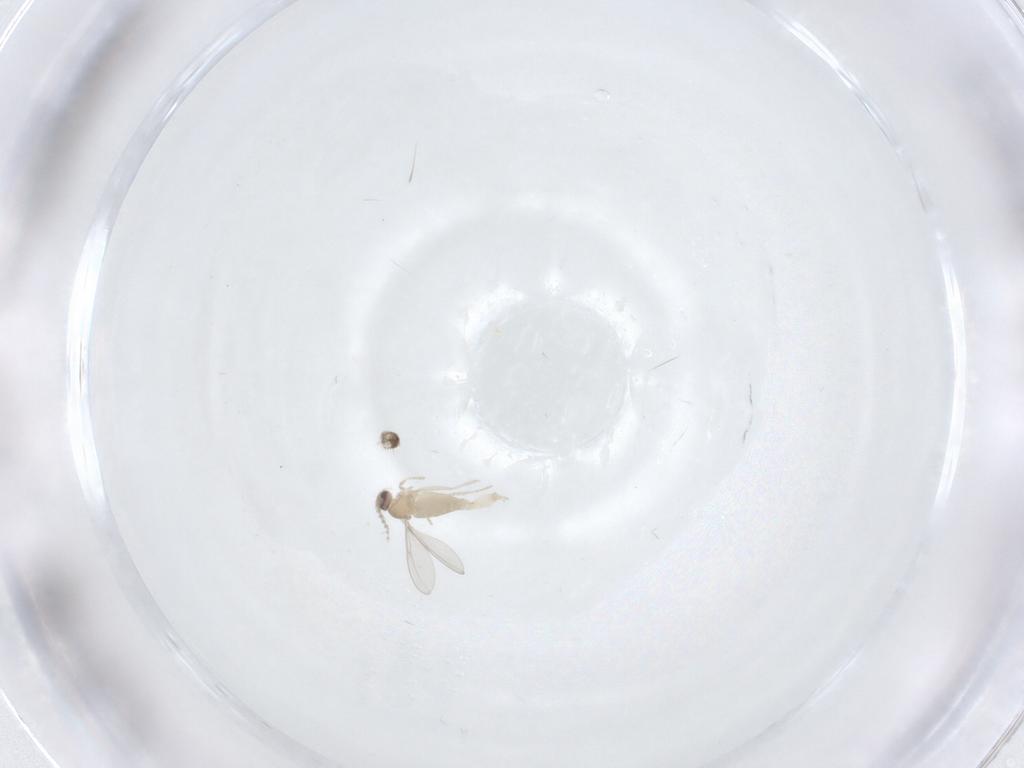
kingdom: Animalia
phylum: Arthropoda
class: Insecta
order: Diptera
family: Cecidomyiidae
